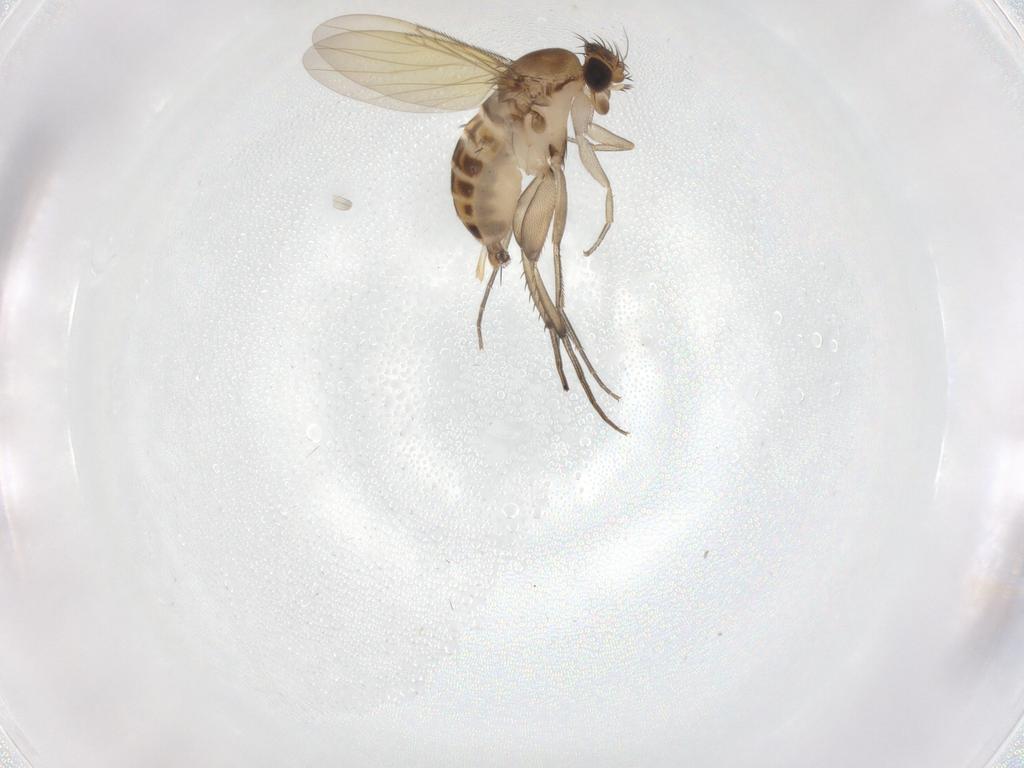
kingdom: Animalia
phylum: Arthropoda
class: Insecta
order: Diptera
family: Phoridae
